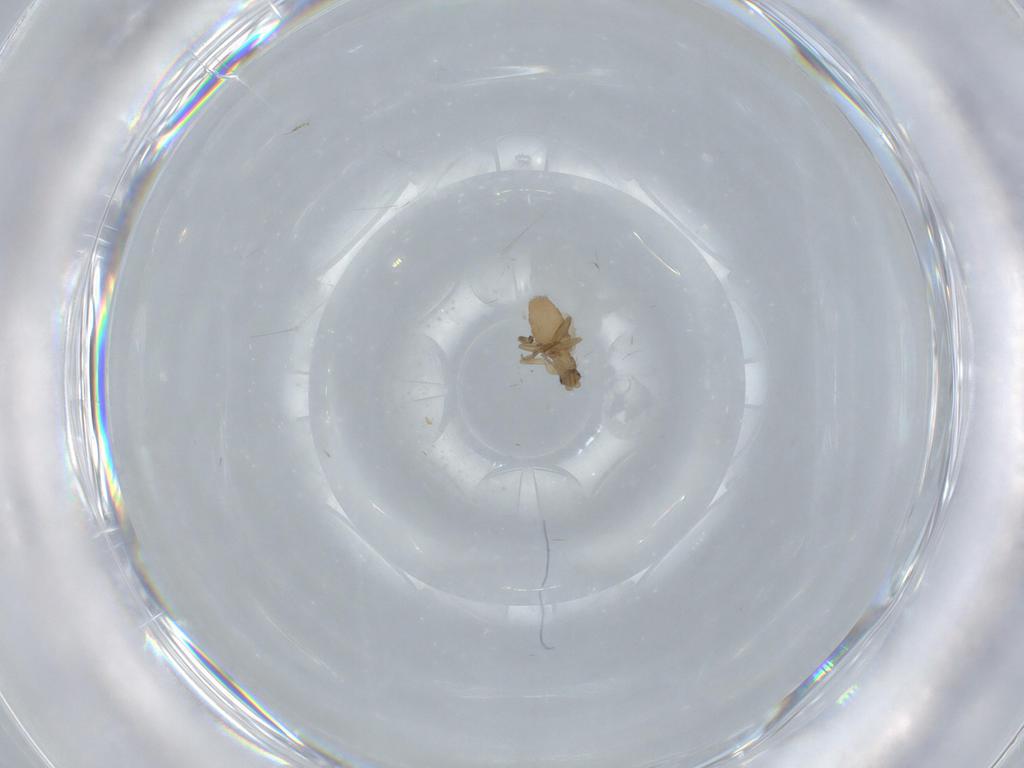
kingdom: Animalia
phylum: Arthropoda
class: Insecta
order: Diptera
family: Phoridae
